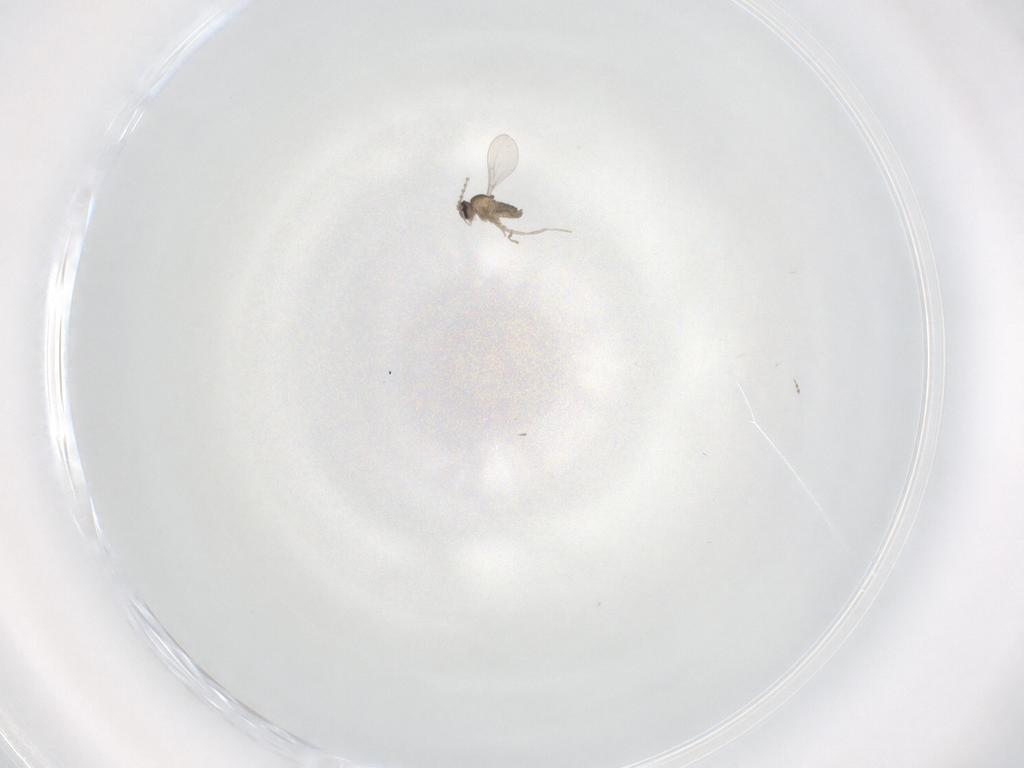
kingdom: Animalia
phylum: Arthropoda
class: Insecta
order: Diptera
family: Cecidomyiidae
